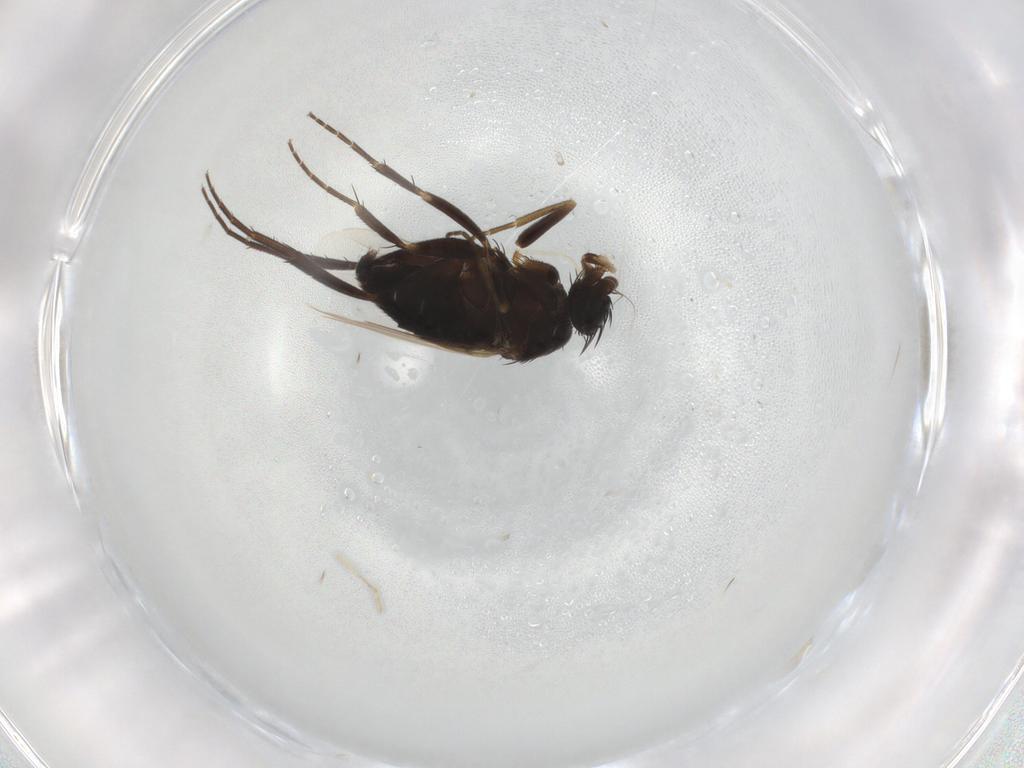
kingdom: Animalia
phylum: Arthropoda
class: Insecta
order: Diptera
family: Phoridae
